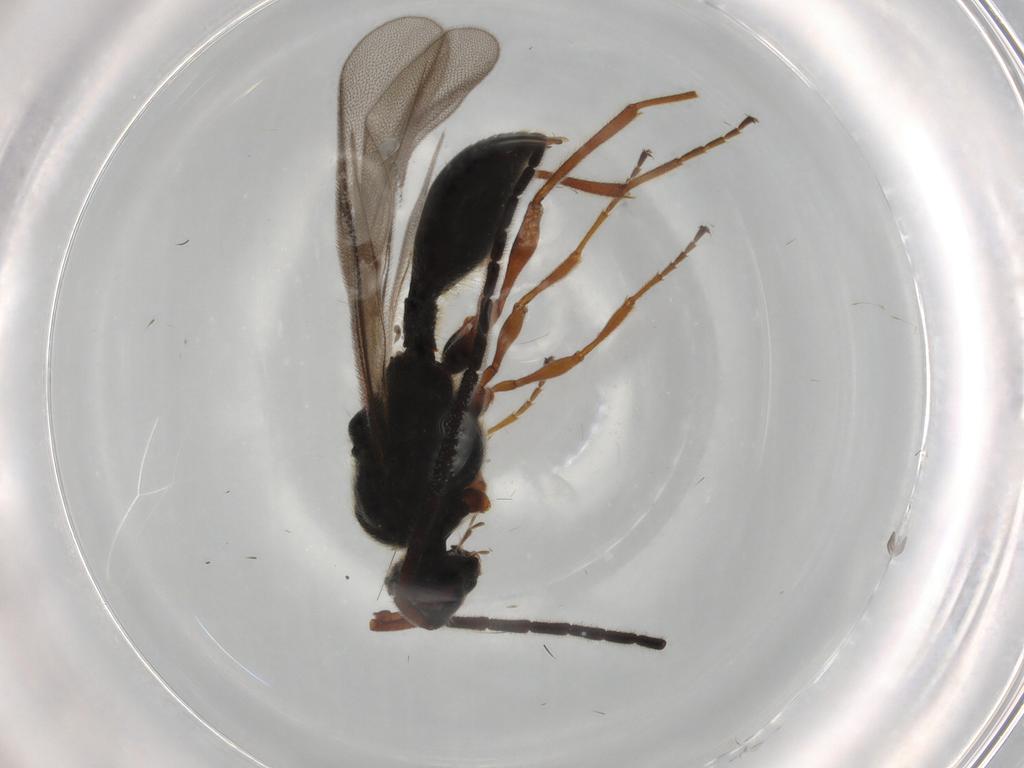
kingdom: Animalia
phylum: Arthropoda
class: Insecta
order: Hymenoptera
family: Diapriidae
